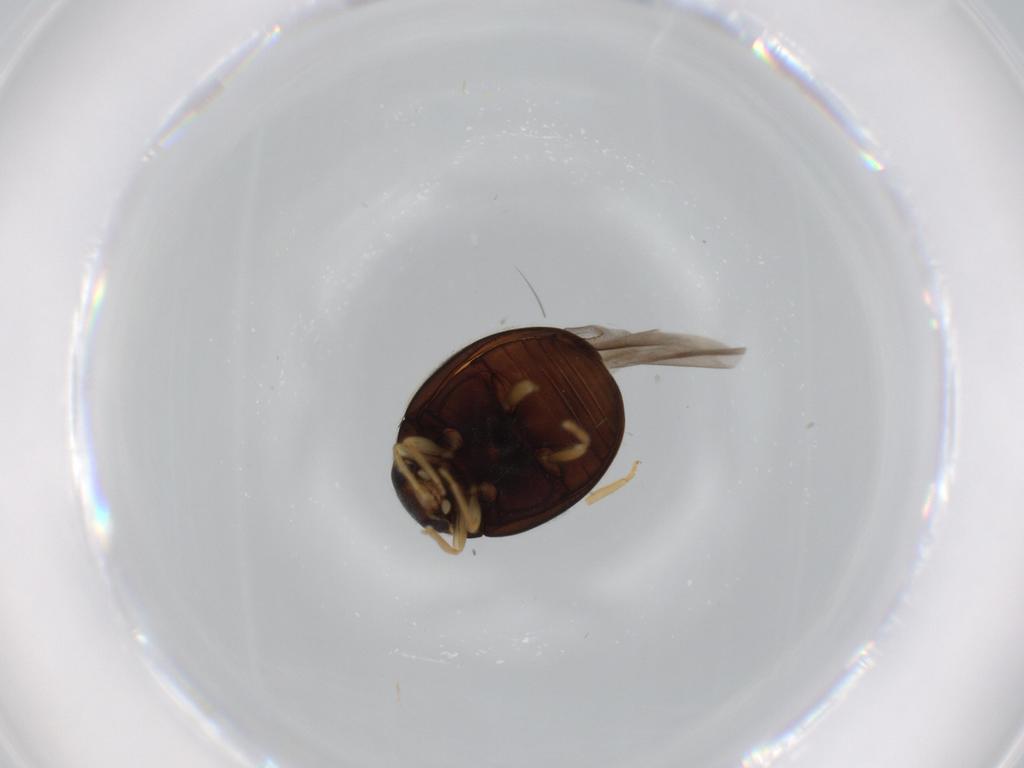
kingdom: Animalia
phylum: Arthropoda
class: Insecta
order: Coleoptera
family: Coccinellidae
